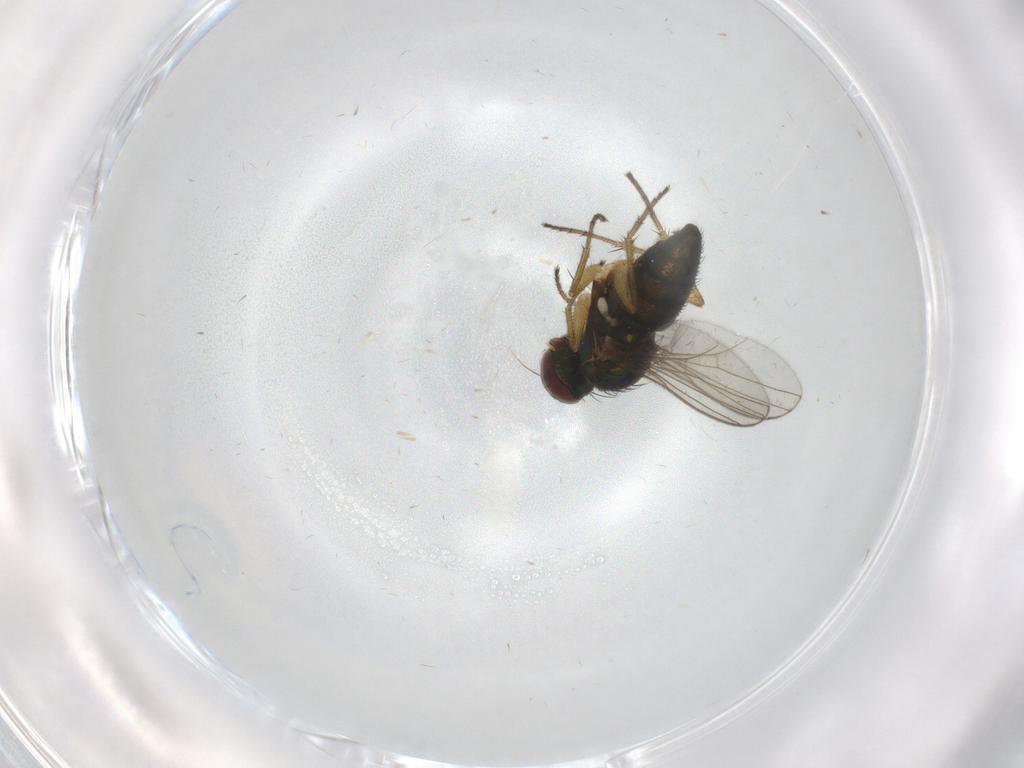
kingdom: Animalia
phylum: Arthropoda
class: Insecta
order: Diptera
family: Dolichopodidae
